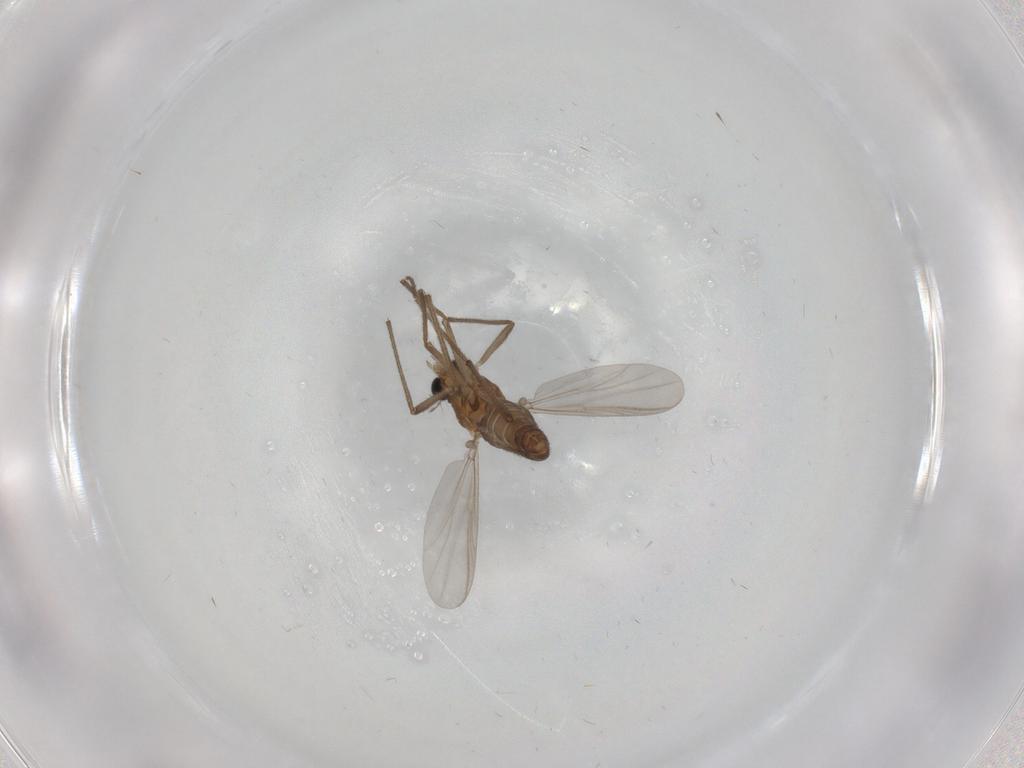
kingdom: Animalia
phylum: Arthropoda
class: Insecta
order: Diptera
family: Chironomidae
